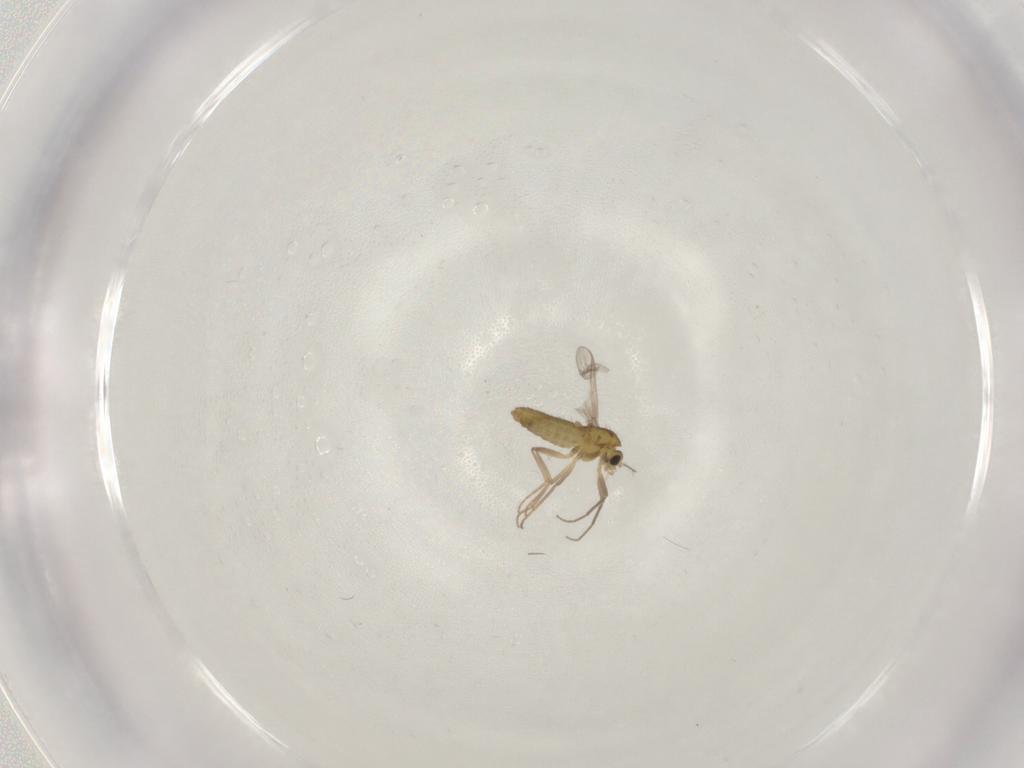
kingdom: Animalia
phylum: Arthropoda
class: Insecta
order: Diptera
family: Chironomidae
